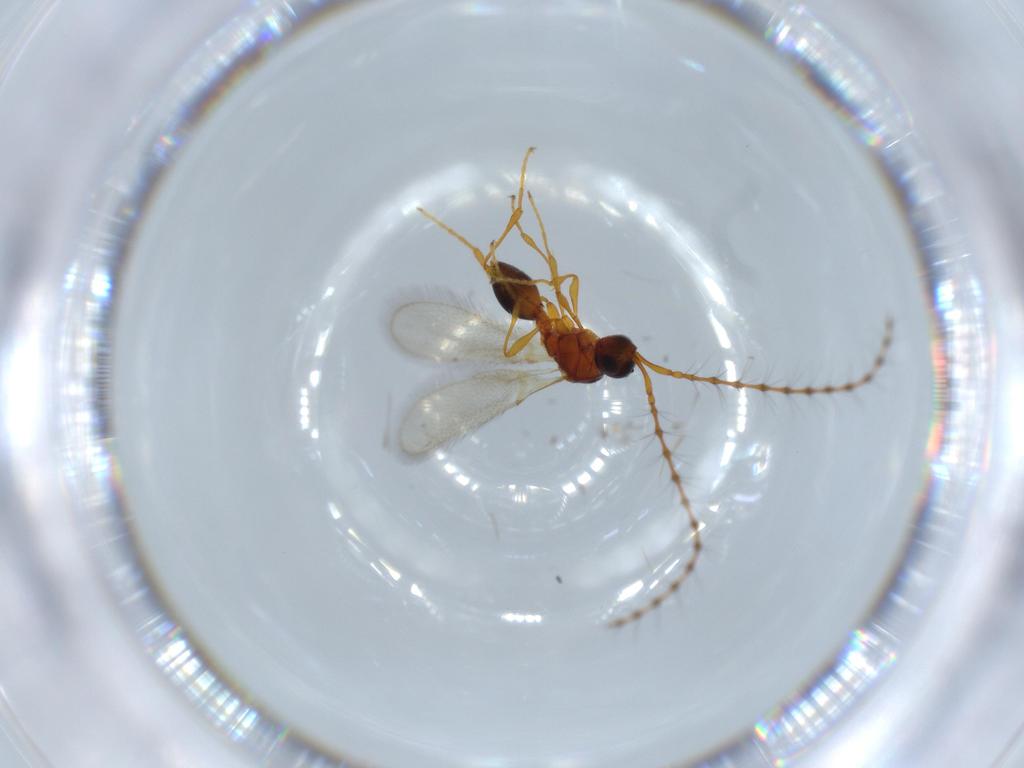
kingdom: Animalia
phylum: Arthropoda
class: Insecta
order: Hymenoptera
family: Diapriidae
